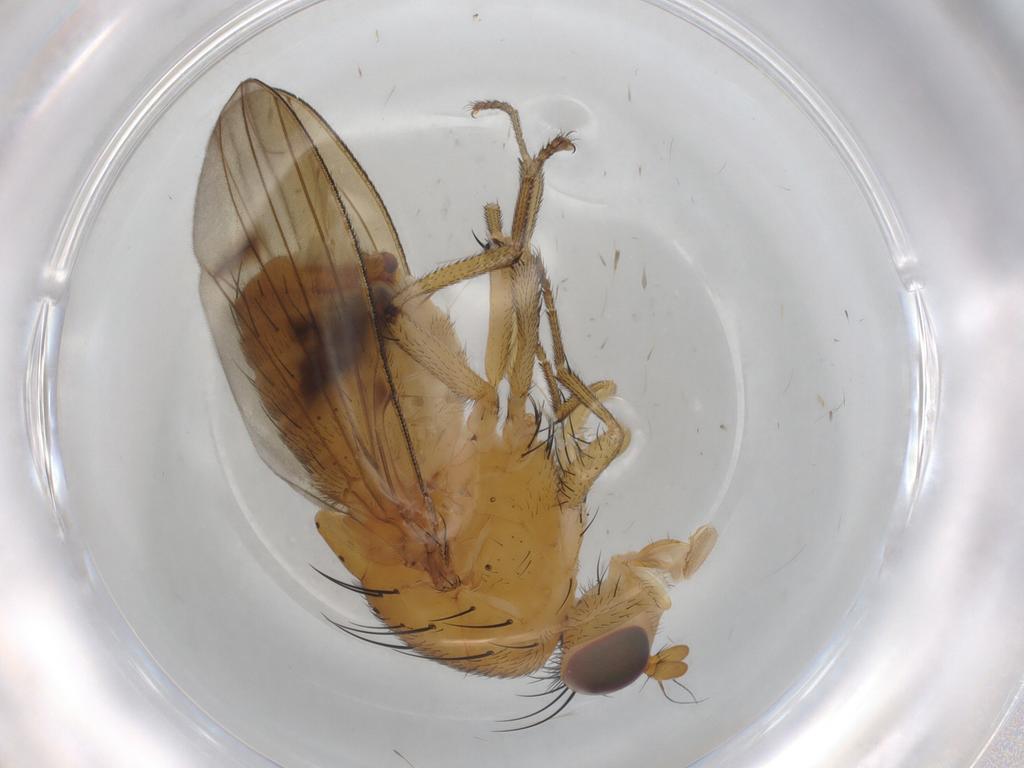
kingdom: Animalia
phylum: Arthropoda
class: Insecta
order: Diptera
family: Lauxaniidae
